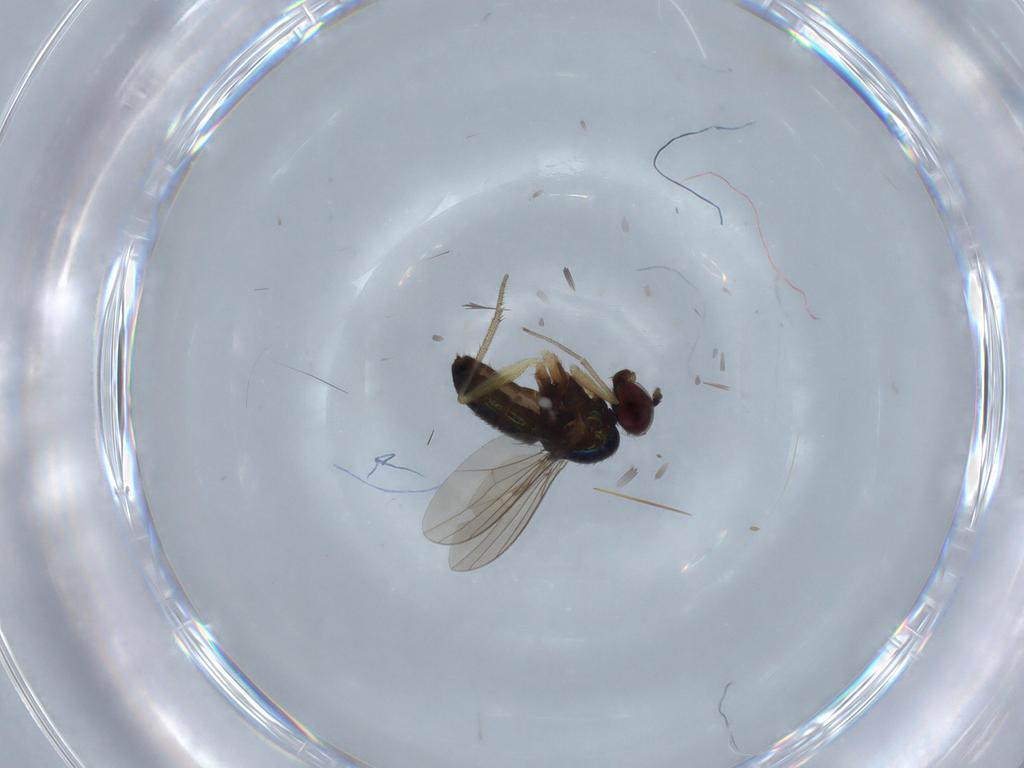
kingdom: Animalia
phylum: Arthropoda
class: Insecta
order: Diptera
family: Dolichopodidae
